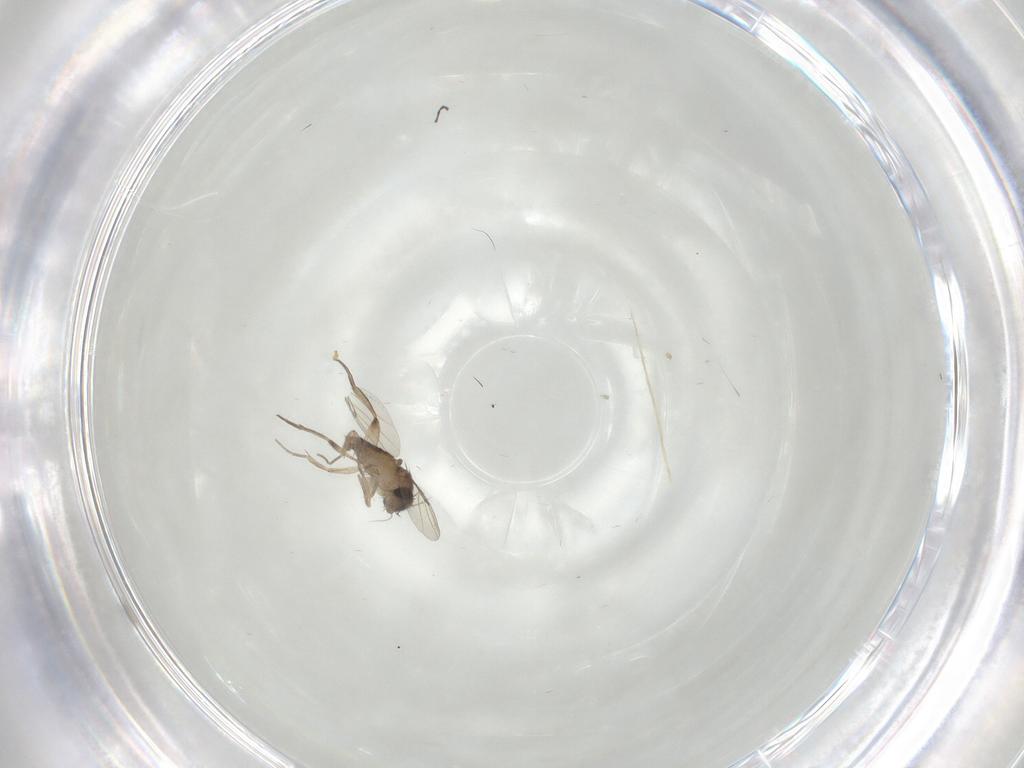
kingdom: Animalia
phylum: Arthropoda
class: Insecta
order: Diptera
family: Phoridae
